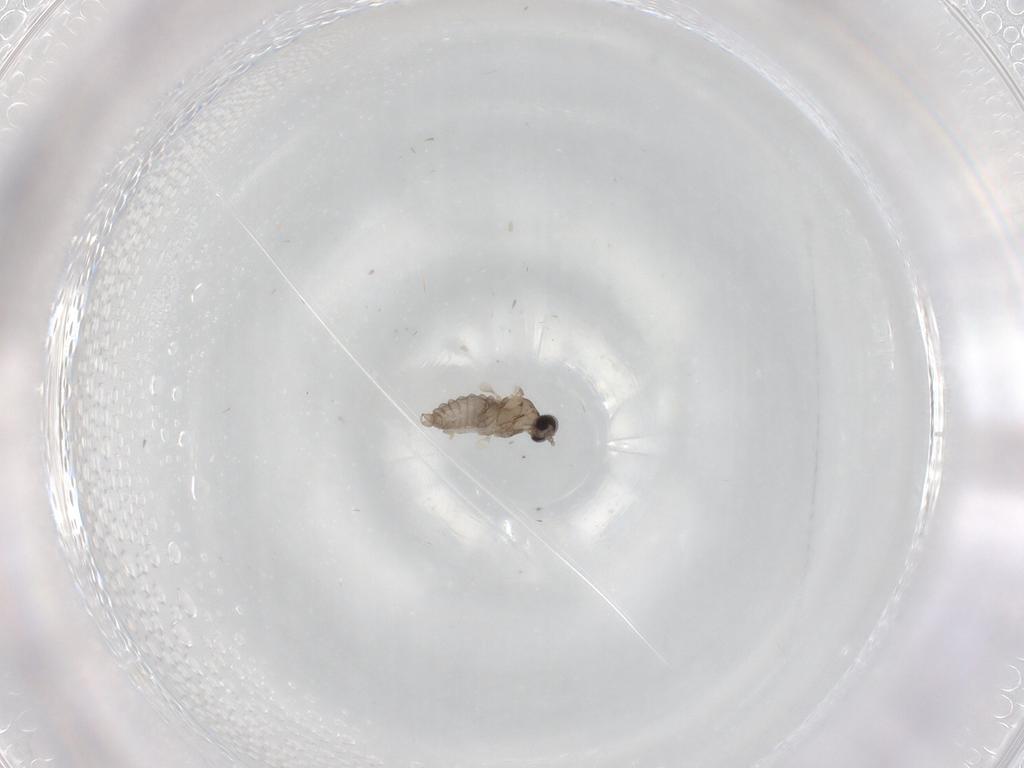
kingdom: Animalia
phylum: Arthropoda
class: Insecta
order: Diptera
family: Cecidomyiidae
